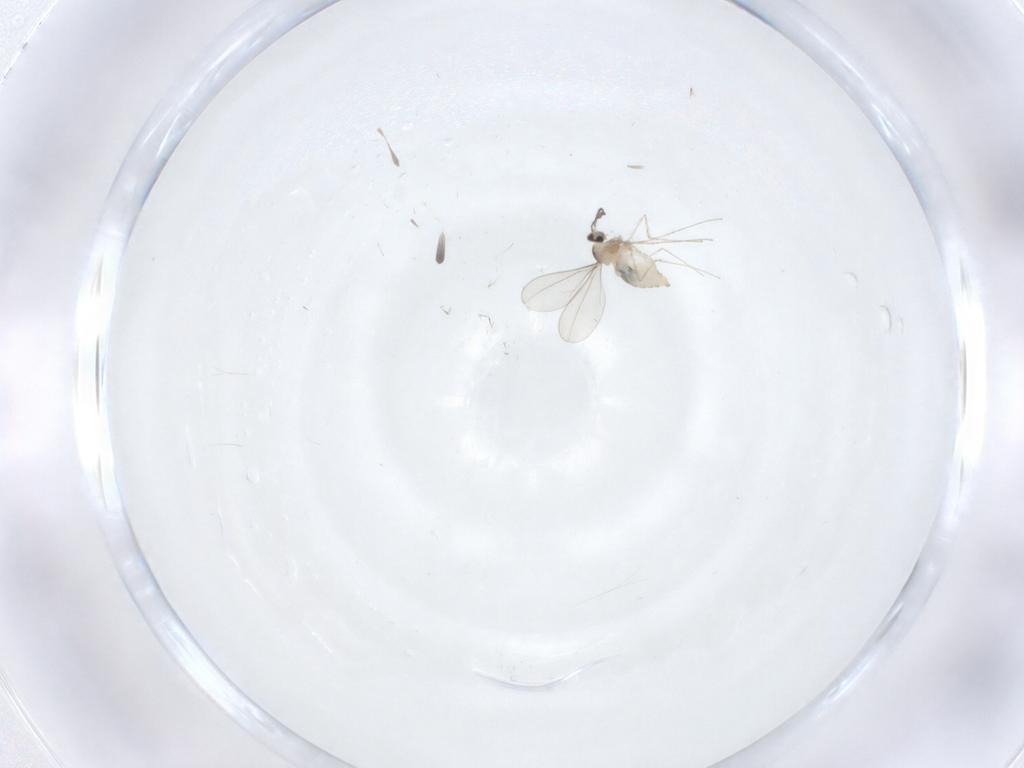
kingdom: Animalia
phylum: Arthropoda
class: Insecta
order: Diptera
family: Cecidomyiidae
